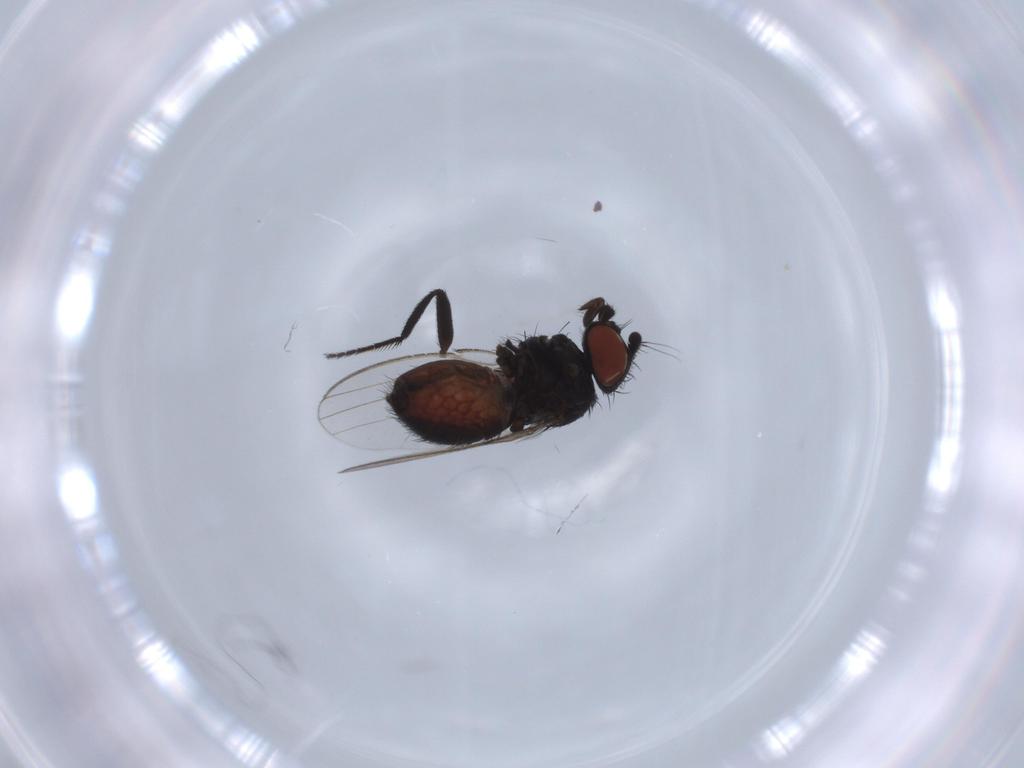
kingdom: Animalia
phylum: Arthropoda
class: Insecta
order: Diptera
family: Milichiidae
